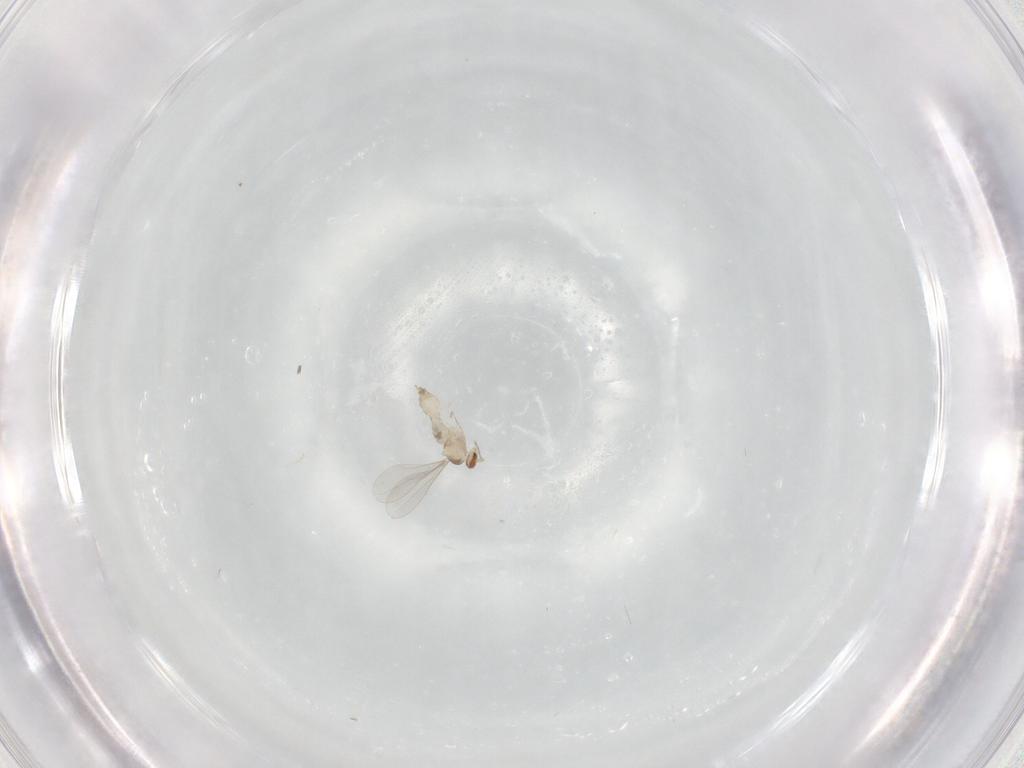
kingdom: Animalia
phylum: Arthropoda
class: Insecta
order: Diptera
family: Cecidomyiidae
